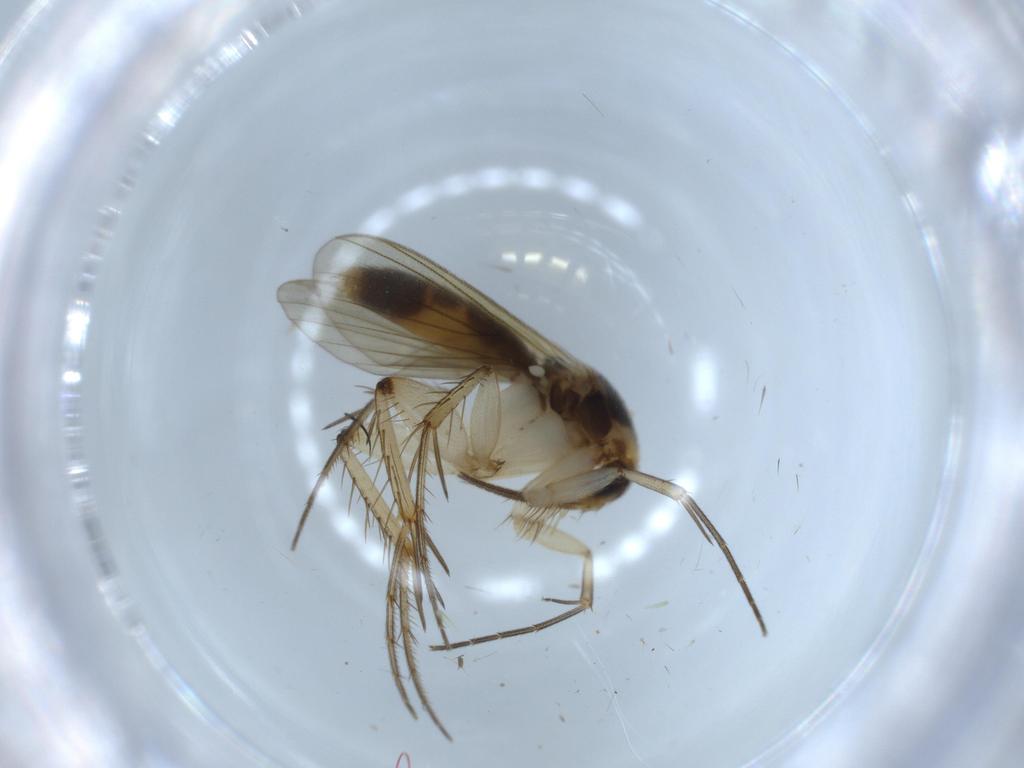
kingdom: Animalia
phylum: Arthropoda
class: Insecta
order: Diptera
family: Mycetophilidae
